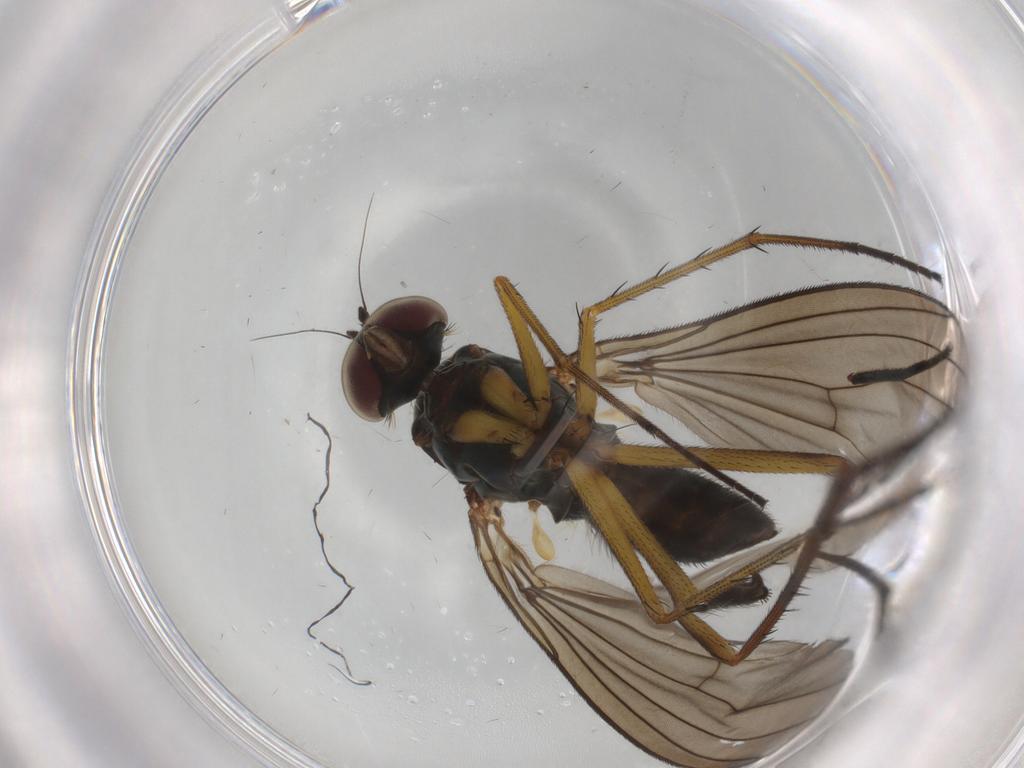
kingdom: Animalia
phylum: Arthropoda
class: Insecta
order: Diptera
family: Dolichopodidae
